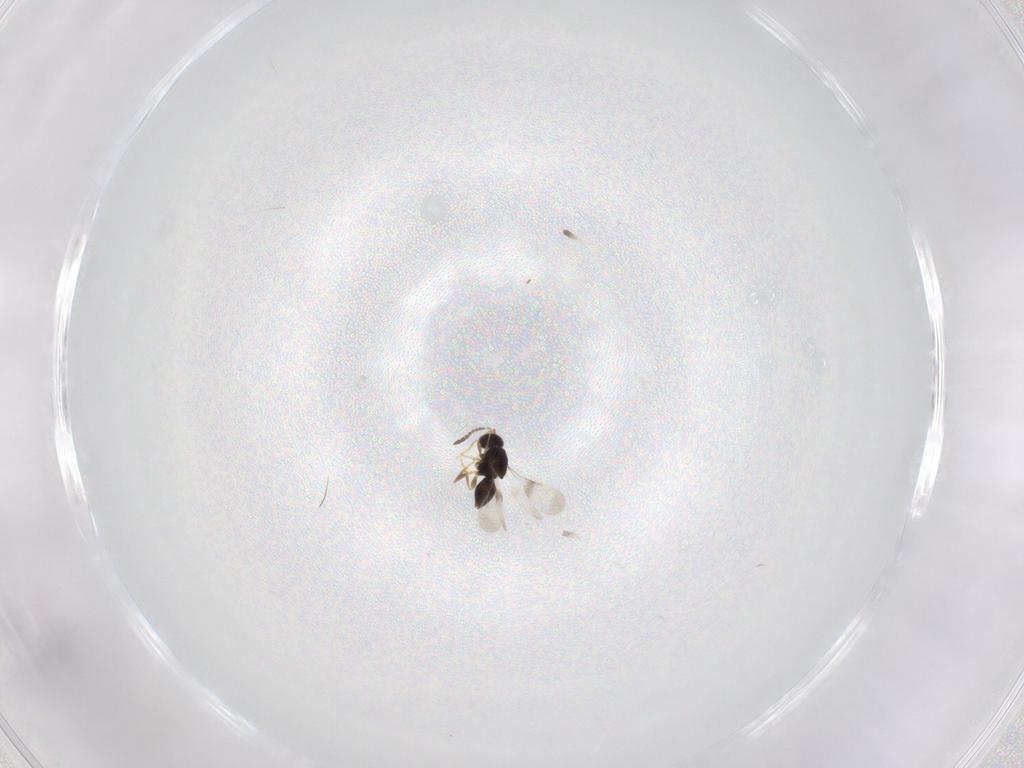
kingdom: Animalia
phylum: Arthropoda
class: Insecta
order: Hymenoptera
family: Ceraphronidae
